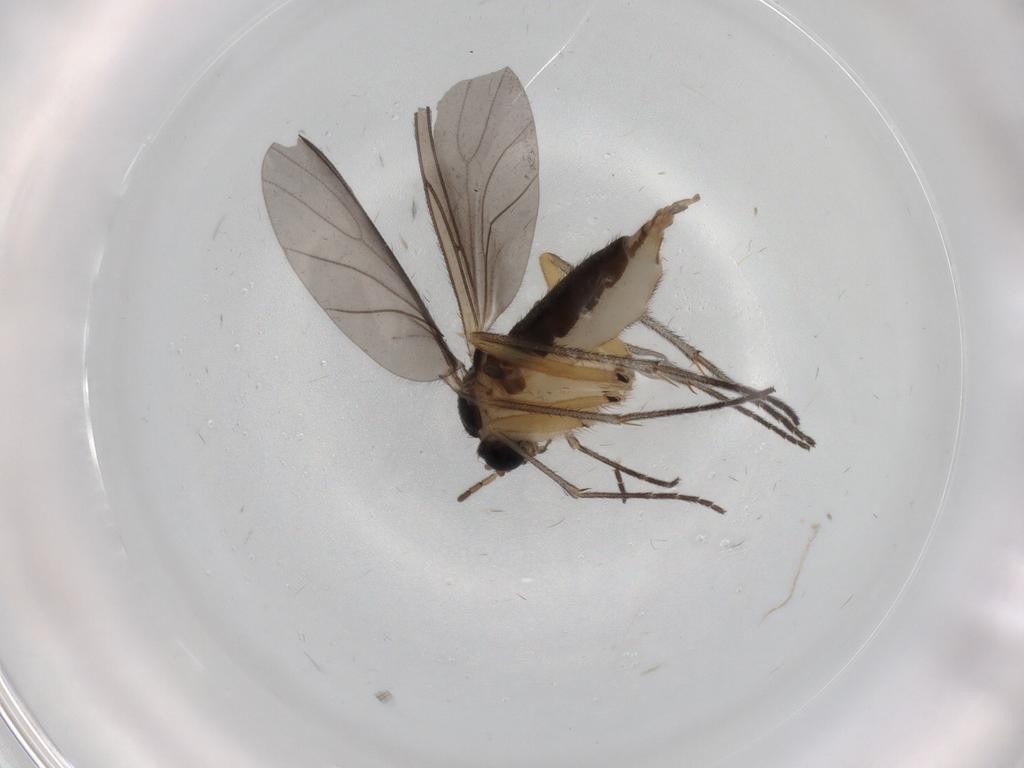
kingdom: Animalia
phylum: Arthropoda
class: Insecta
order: Diptera
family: Sciaridae
